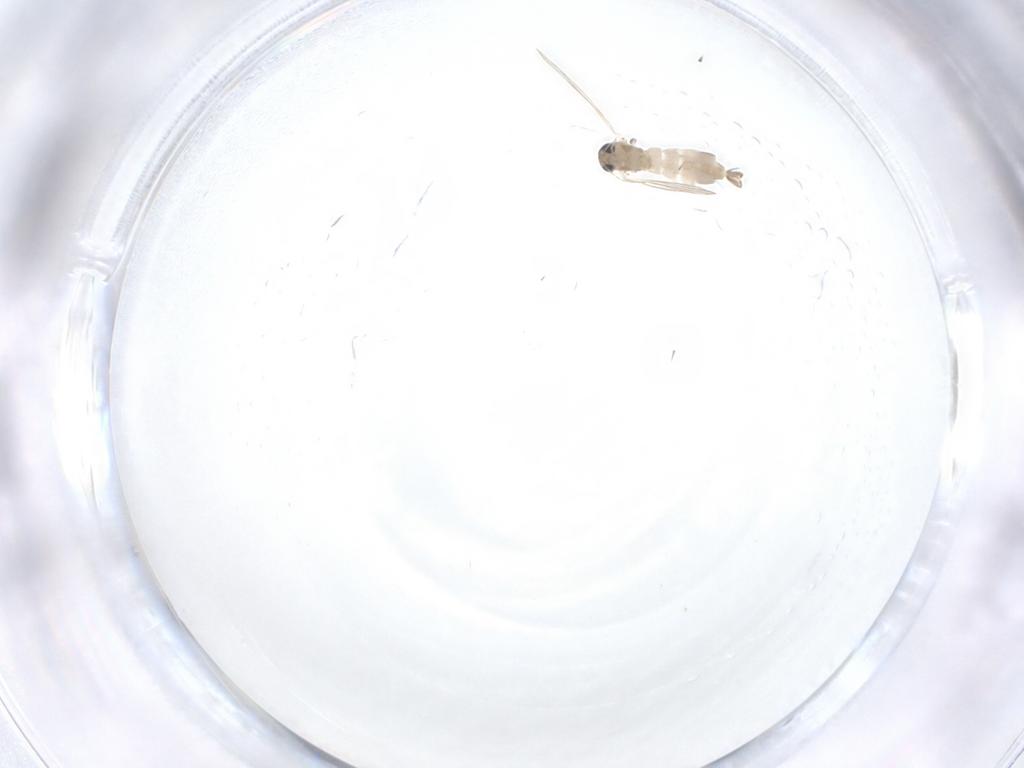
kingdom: Animalia
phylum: Arthropoda
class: Insecta
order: Diptera
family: Psychodidae
